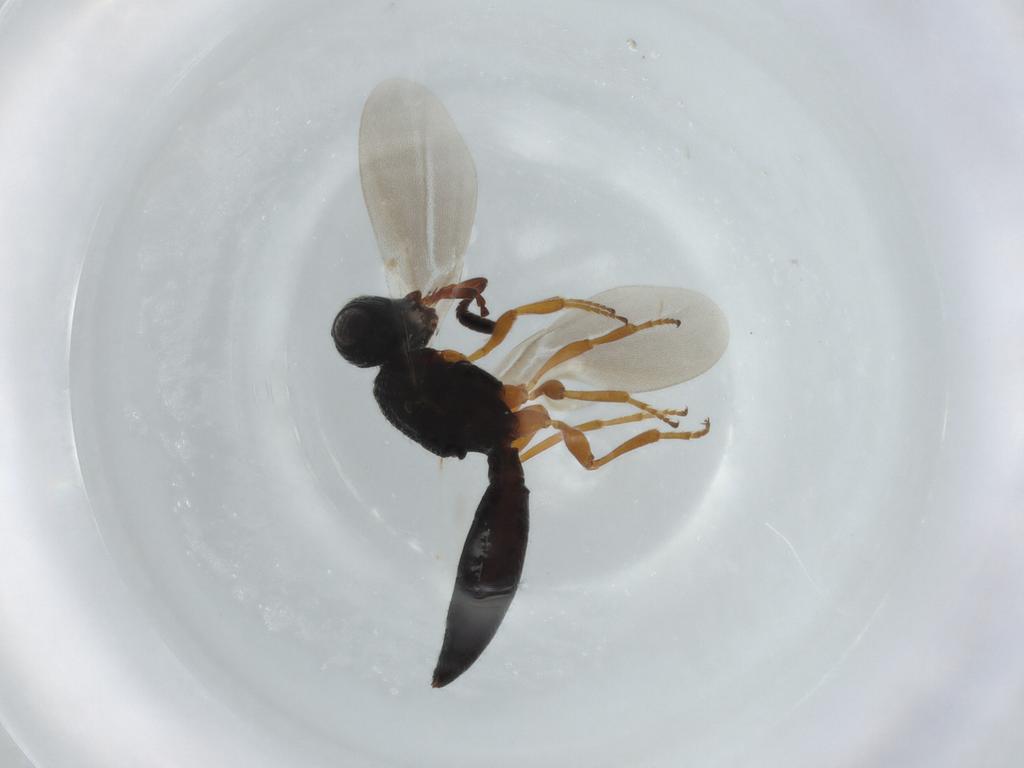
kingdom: Animalia
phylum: Arthropoda
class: Insecta
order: Hymenoptera
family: Scelionidae
